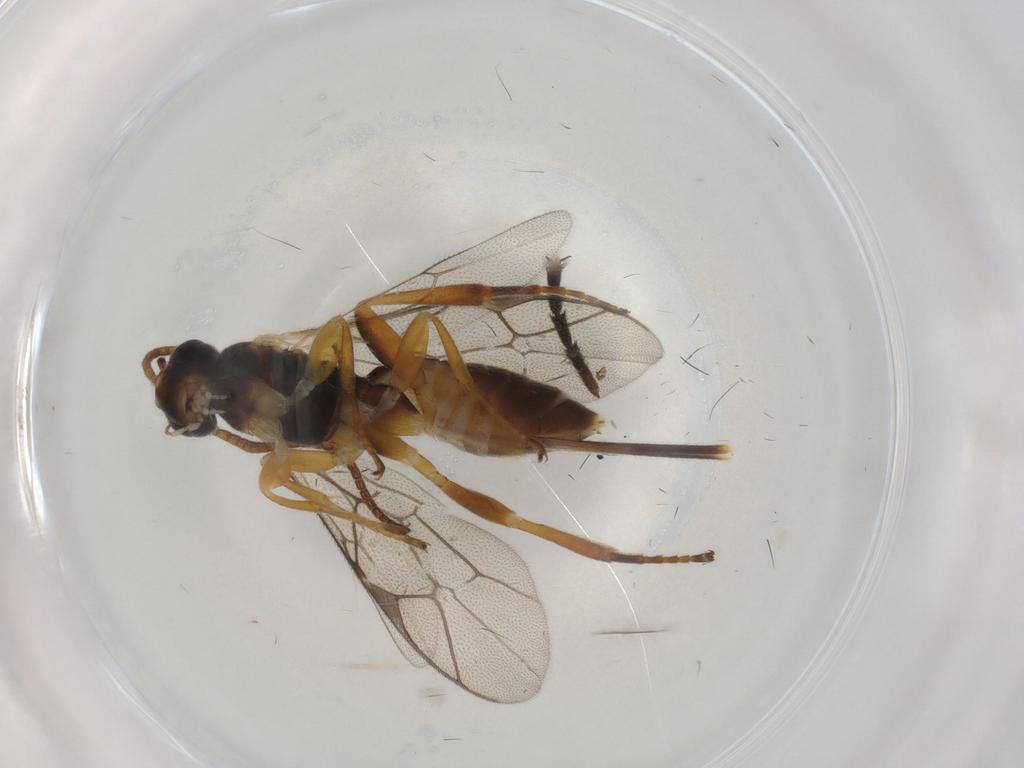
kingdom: Animalia
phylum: Arthropoda
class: Insecta
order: Hymenoptera
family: Ichneumonidae
